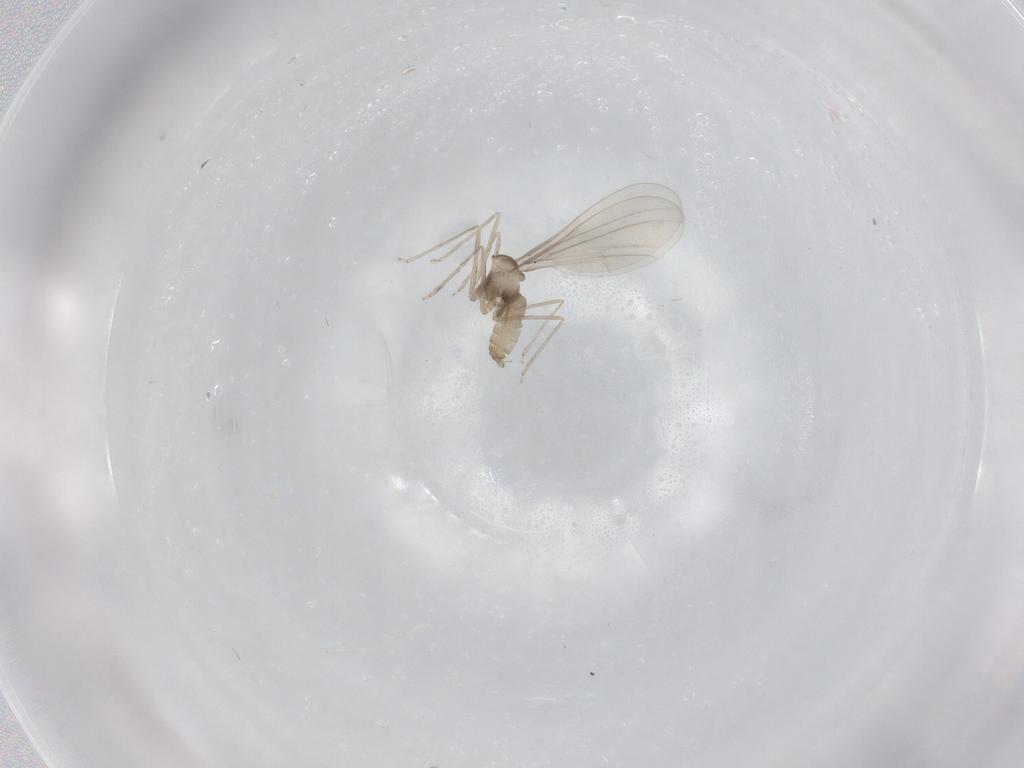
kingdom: Animalia
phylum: Arthropoda
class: Insecta
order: Diptera
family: Cecidomyiidae
